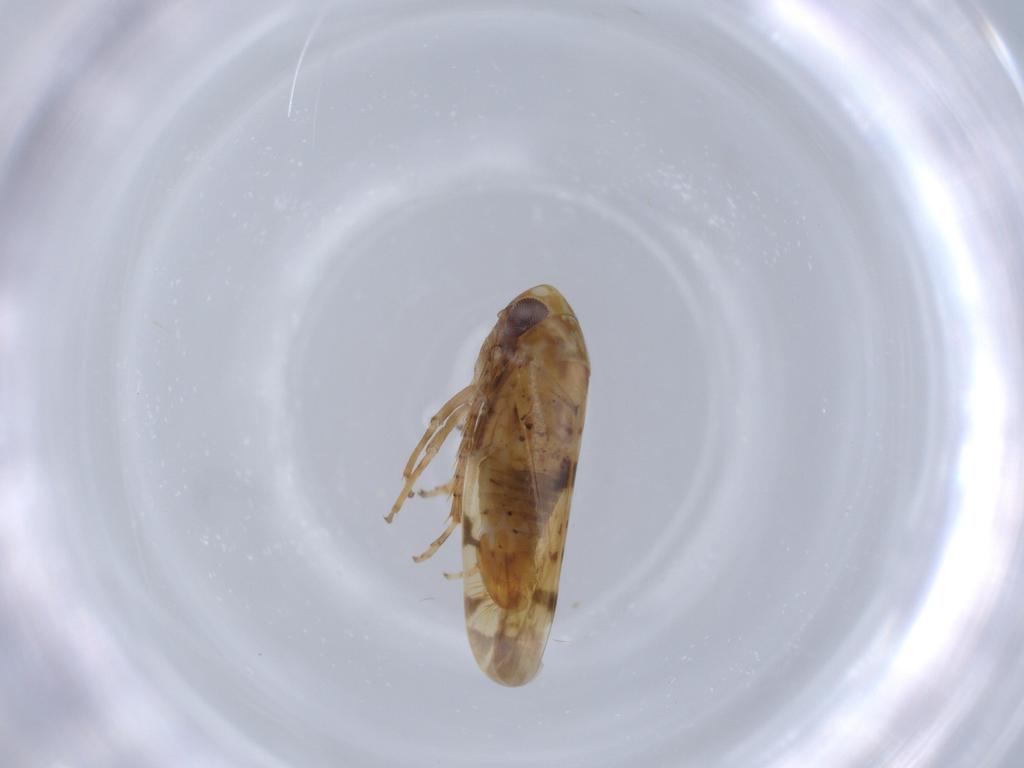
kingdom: Animalia
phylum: Arthropoda
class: Insecta
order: Hemiptera
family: Cicadellidae
